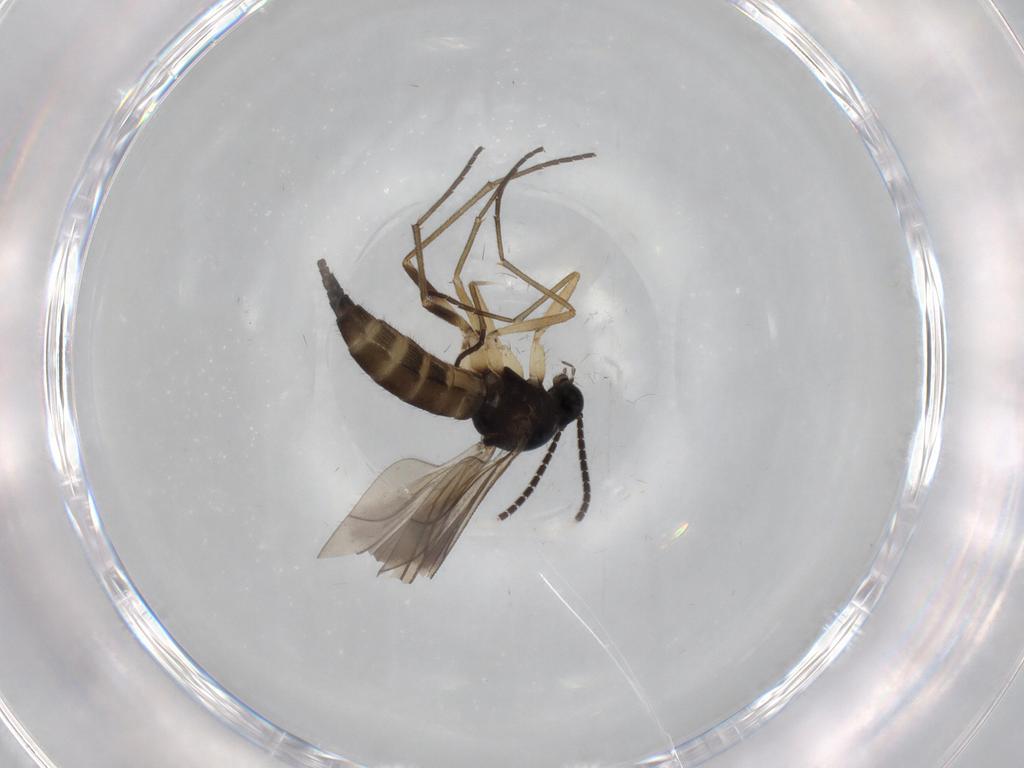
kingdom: Animalia
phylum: Arthropoda
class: Insecta
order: Diptera
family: Sciaridae
